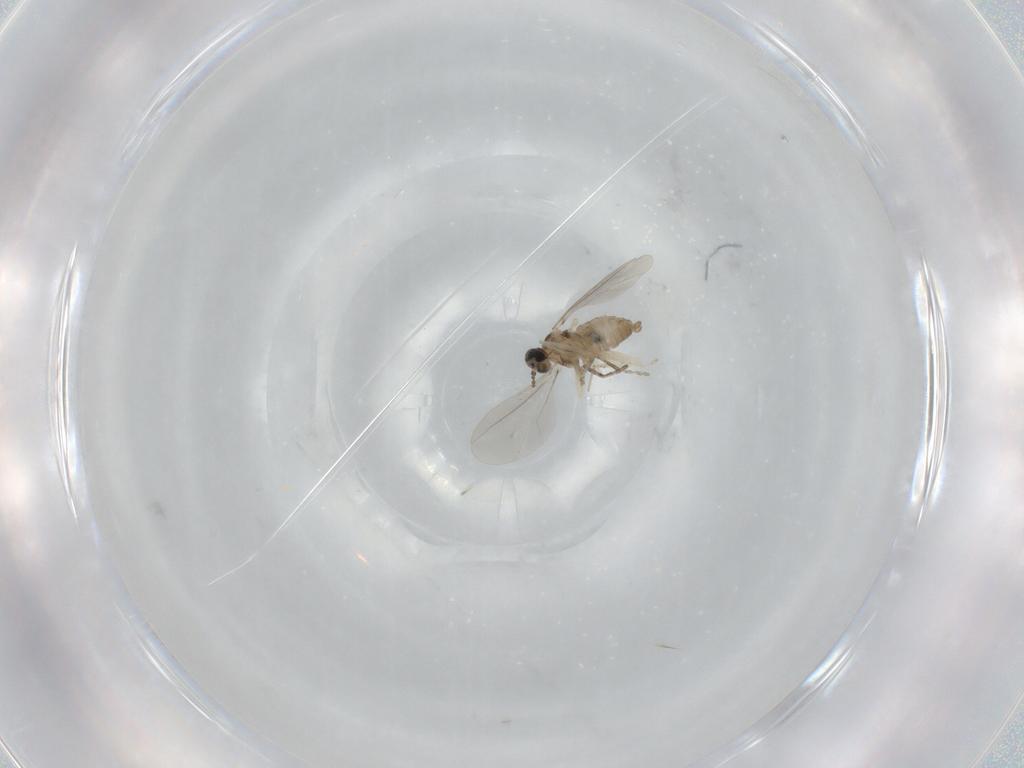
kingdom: Animalia
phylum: Arthropoda
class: Insecta
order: Diptera
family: Cecidomyiidae
